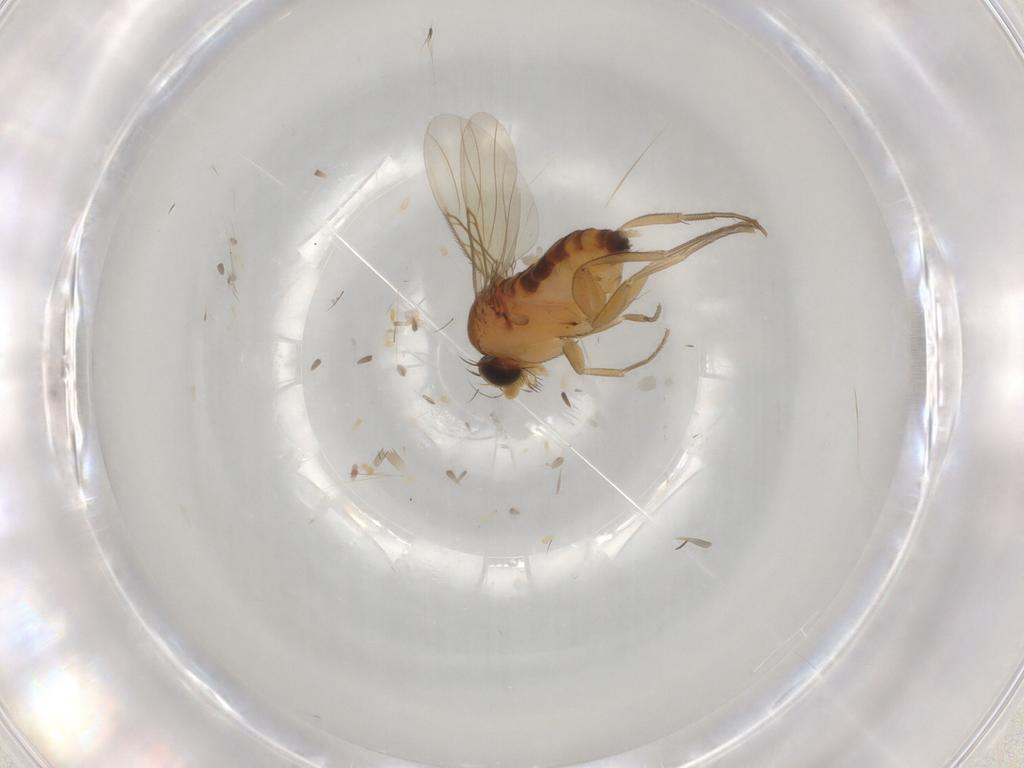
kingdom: Animalia
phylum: Arthropoda
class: Insecta
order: Diptera
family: Phoridae
